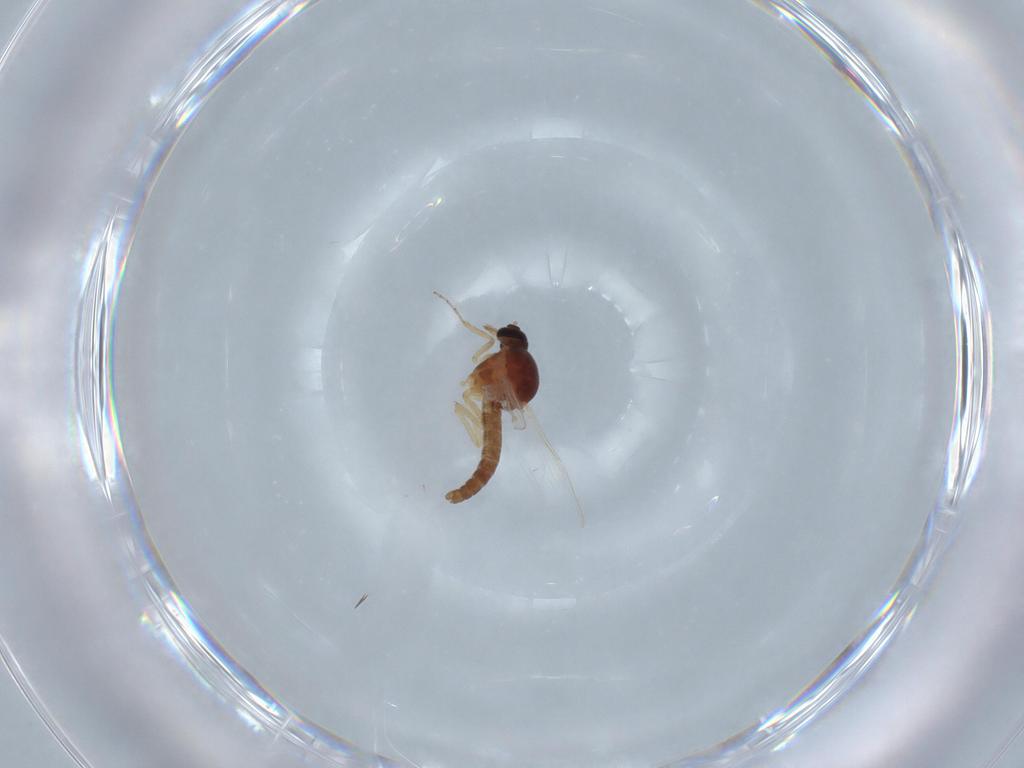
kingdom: Animalia
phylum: Arthropoda
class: Insecta
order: Diptera
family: Ceratopogonidae
